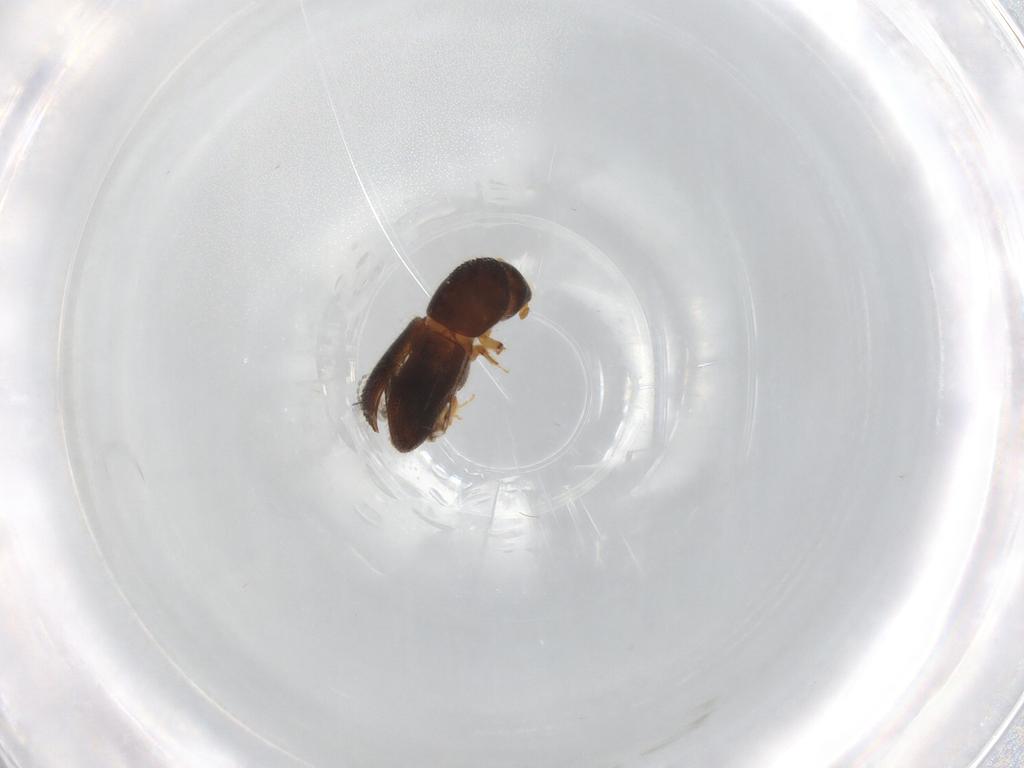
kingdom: Animalia
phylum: Arthropoda
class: Insecta
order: Coleoptera
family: Curculionidae
